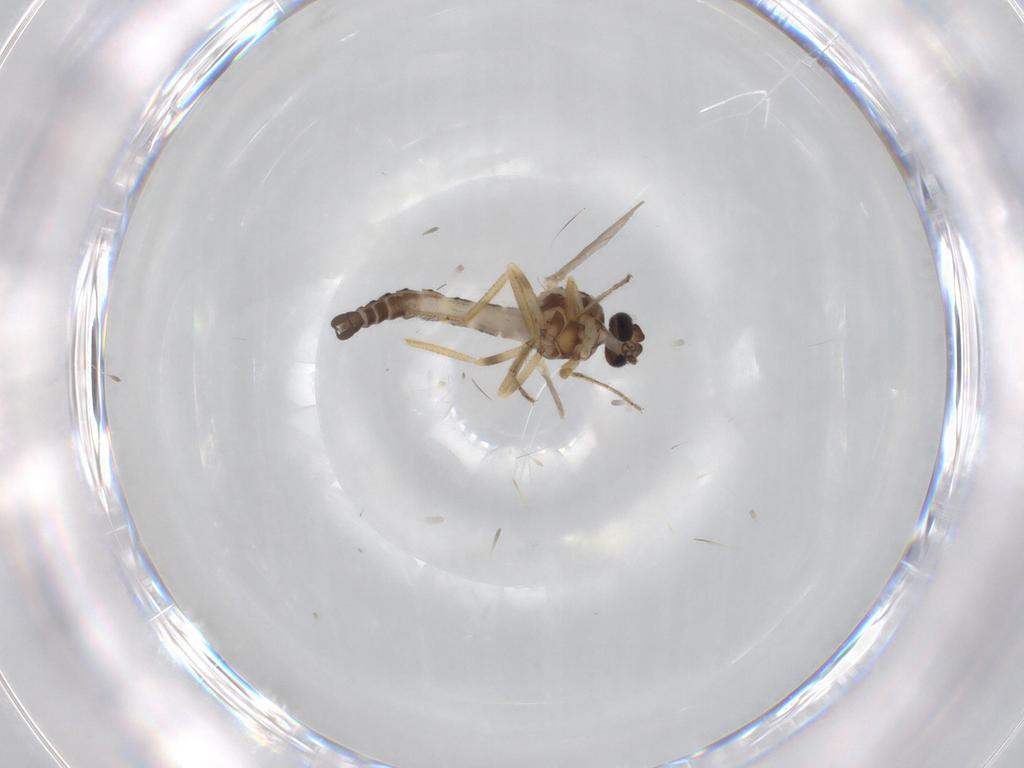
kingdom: Animalia
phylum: Arthropoda
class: Insecta
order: Diptera
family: Ceratopogonidae
